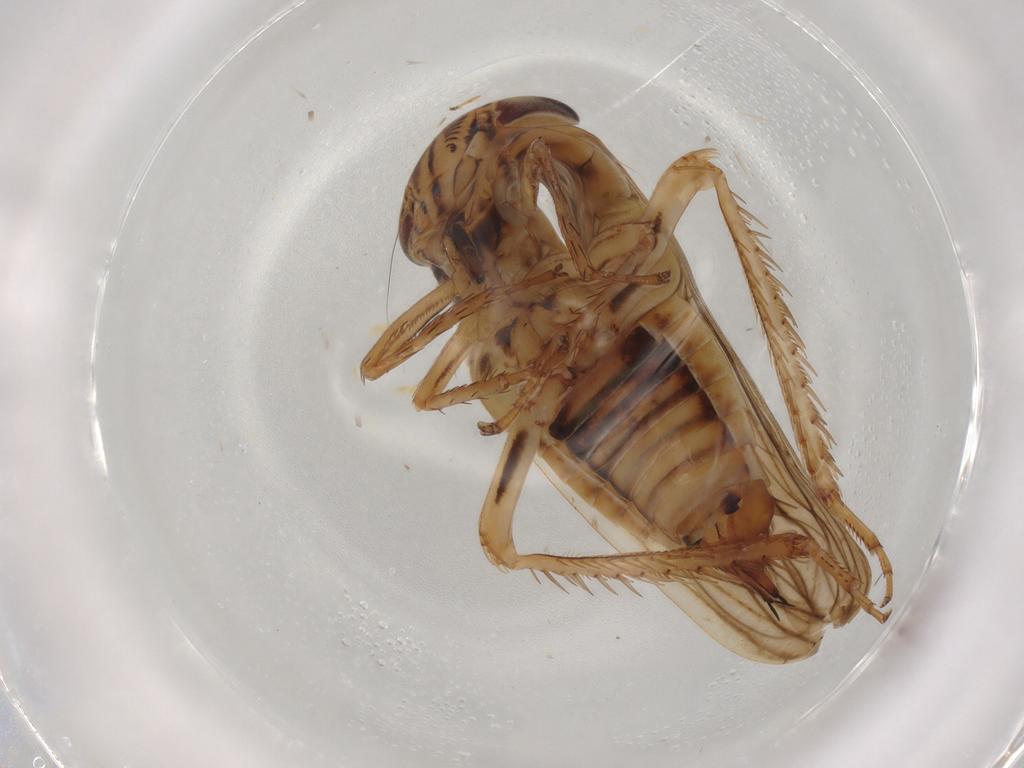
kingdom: Animalia
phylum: Arthropoda
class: Insecta
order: Hemiptera
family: Cicadellidae
